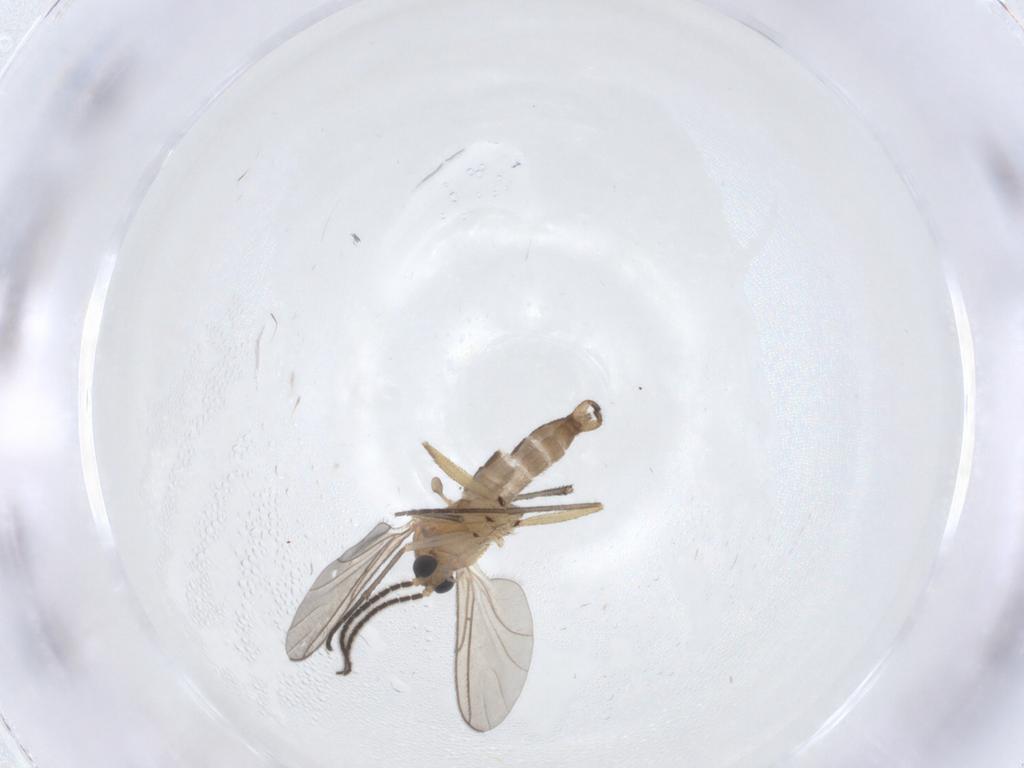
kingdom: Animalia
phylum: Arthropoda
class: Insecta
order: Diptera
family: Sciaridae
